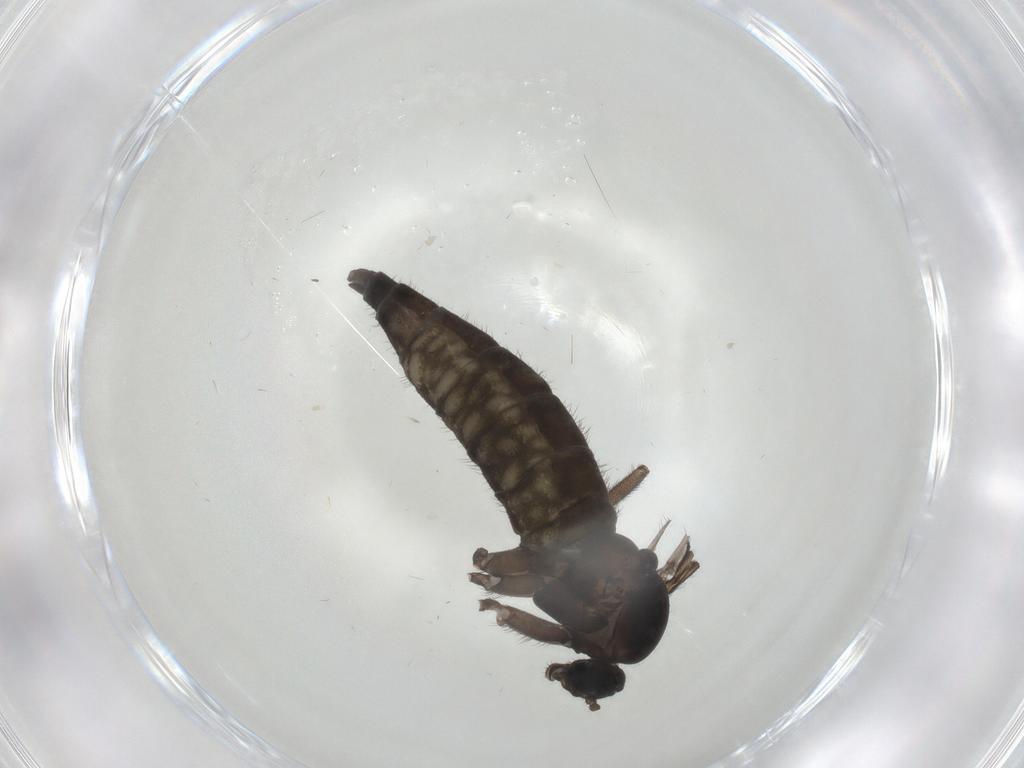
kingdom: Animalia
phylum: Arthropoda
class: Insecta
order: Diptera
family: Sciaridae
